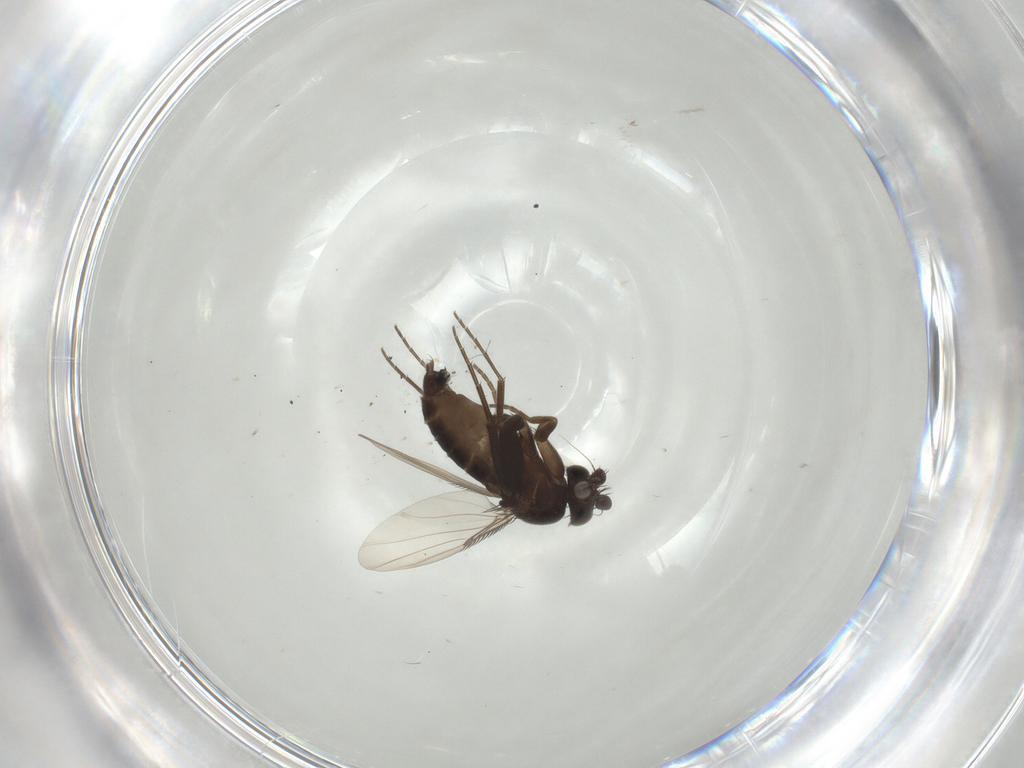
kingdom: Animalia
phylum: Arthropoda
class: Insecta
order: Diptera
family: Phoridae
